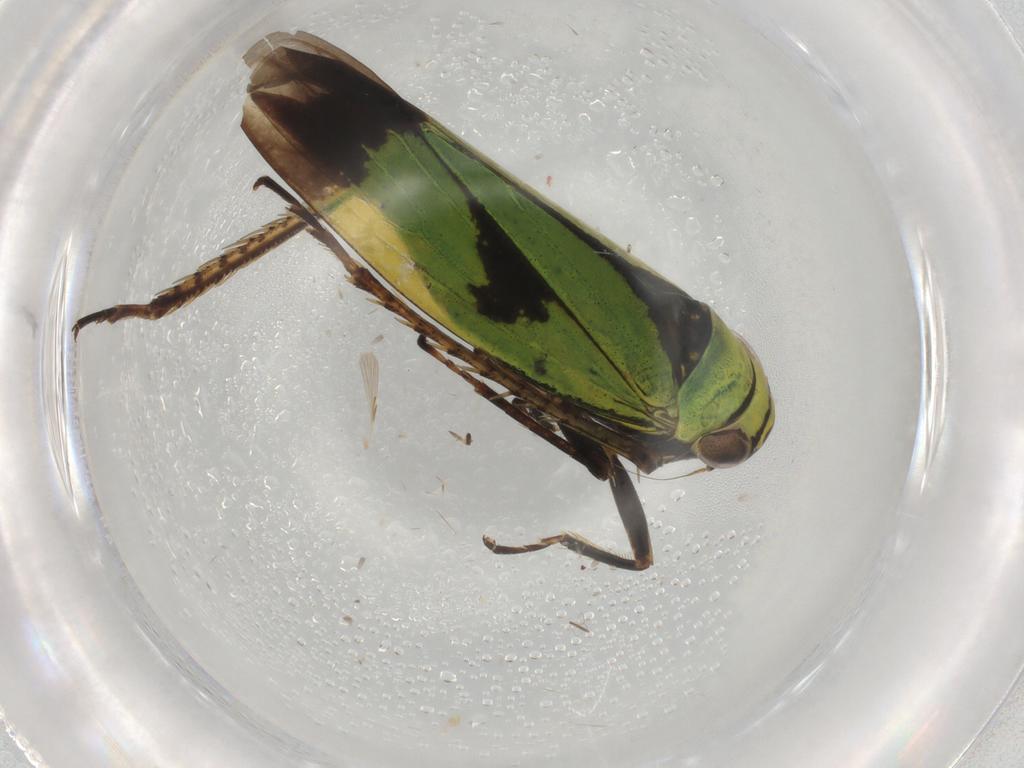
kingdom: Animalia
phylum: Arthropoda
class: Insecta
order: Hemiptera
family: Cicadellidae
